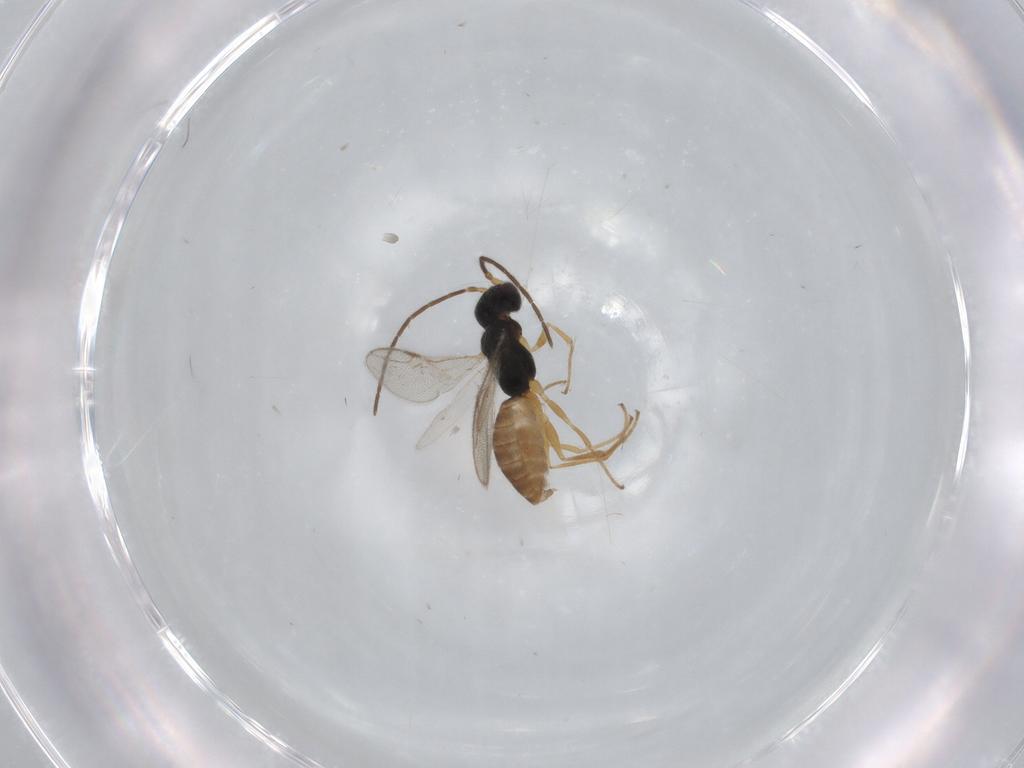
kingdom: Animalia
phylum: Arthropoda
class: Insecta
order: Hymenoptera
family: Dryinidae
